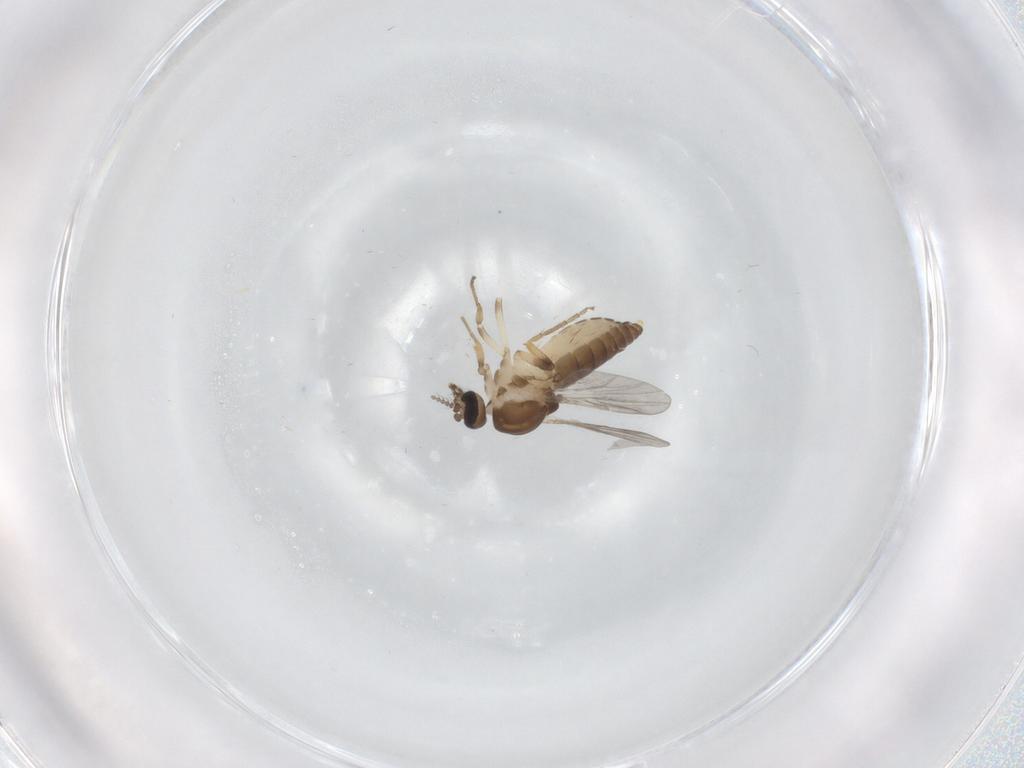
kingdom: Animalia
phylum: Arthropoda
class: Insecta
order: Diptera
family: Ceratopogonidae
